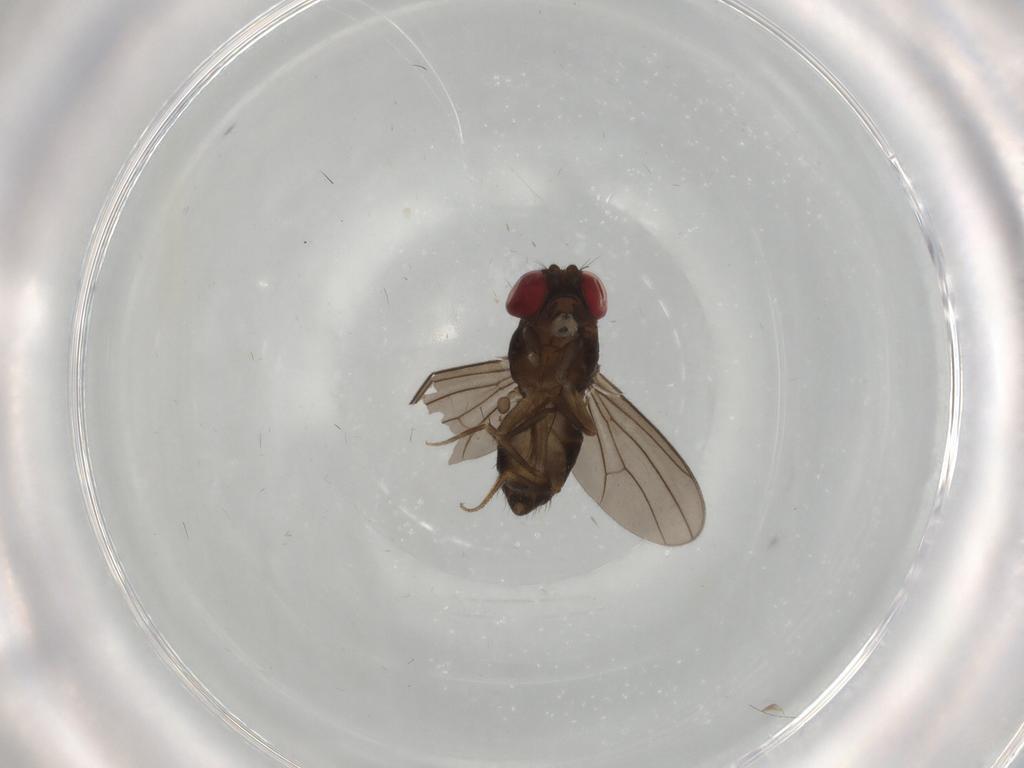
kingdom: Animalia
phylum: Arthropoda
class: Insecta
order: Diptera
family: Drosophilidae
